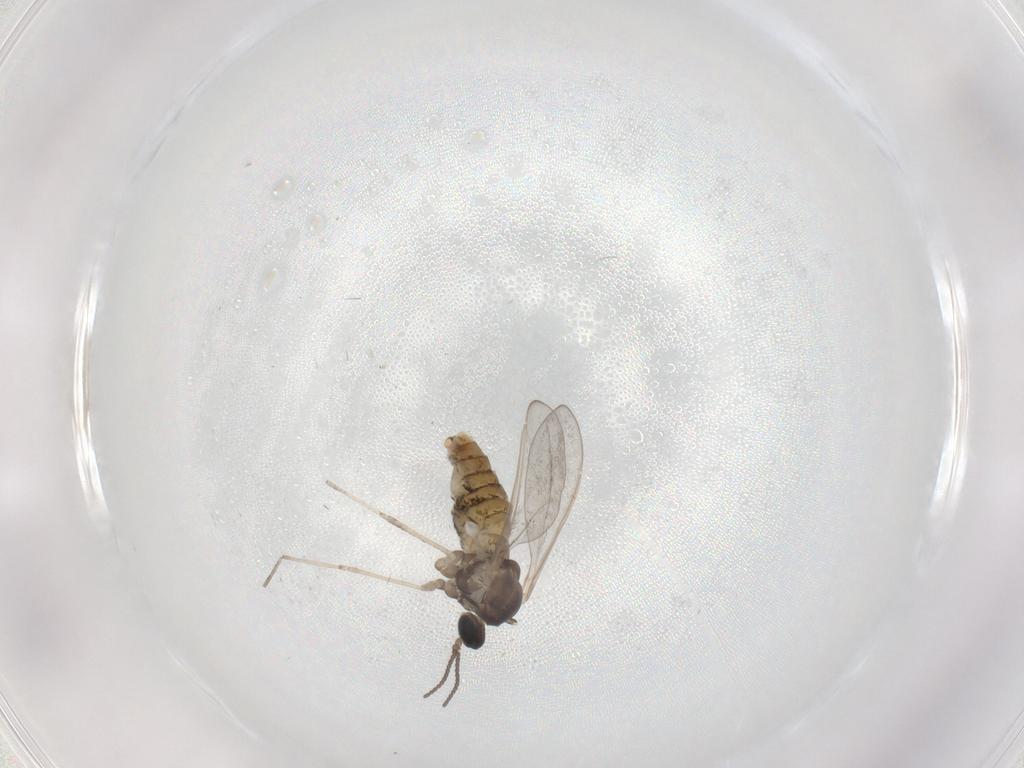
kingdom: Animalia
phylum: Arthropoda
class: Insecta
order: Diptera
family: Cecidomyiidae
